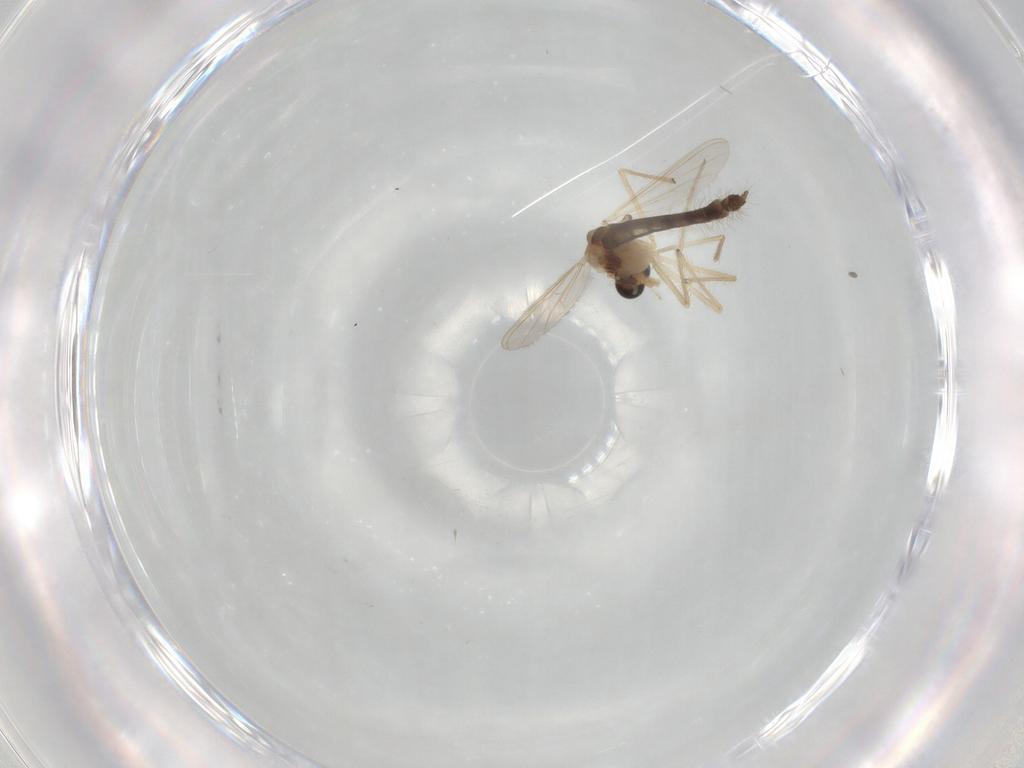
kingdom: Animalia
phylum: Arthropoda
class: Insecta
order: Diptera
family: Chironomidae
